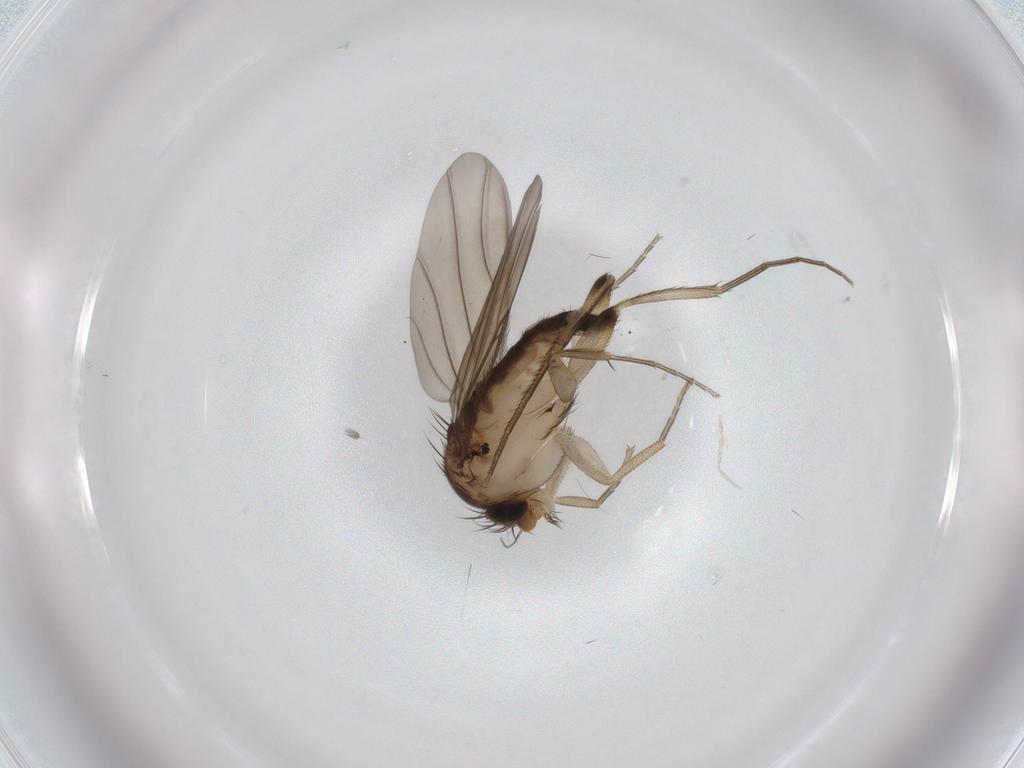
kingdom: Animalia
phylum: Arthropoda
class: Insecta
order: Diptera
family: Phoridae
